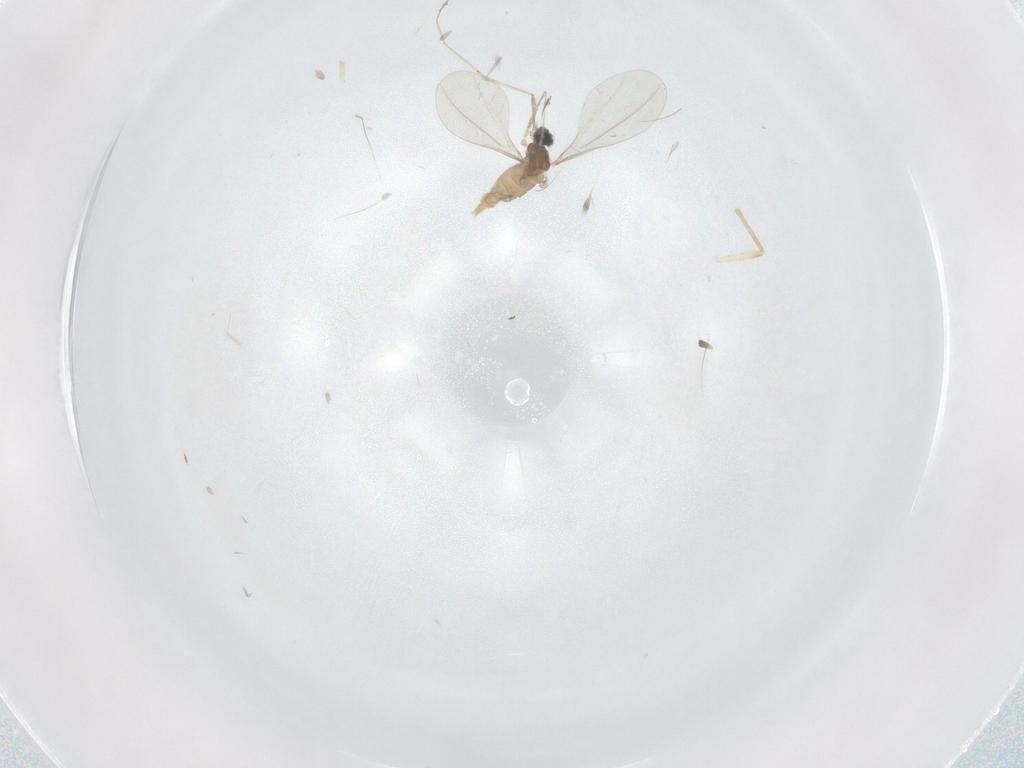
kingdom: Animalia
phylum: Arthropoda
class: Insecta
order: Diptera
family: Cecidomyiidae
